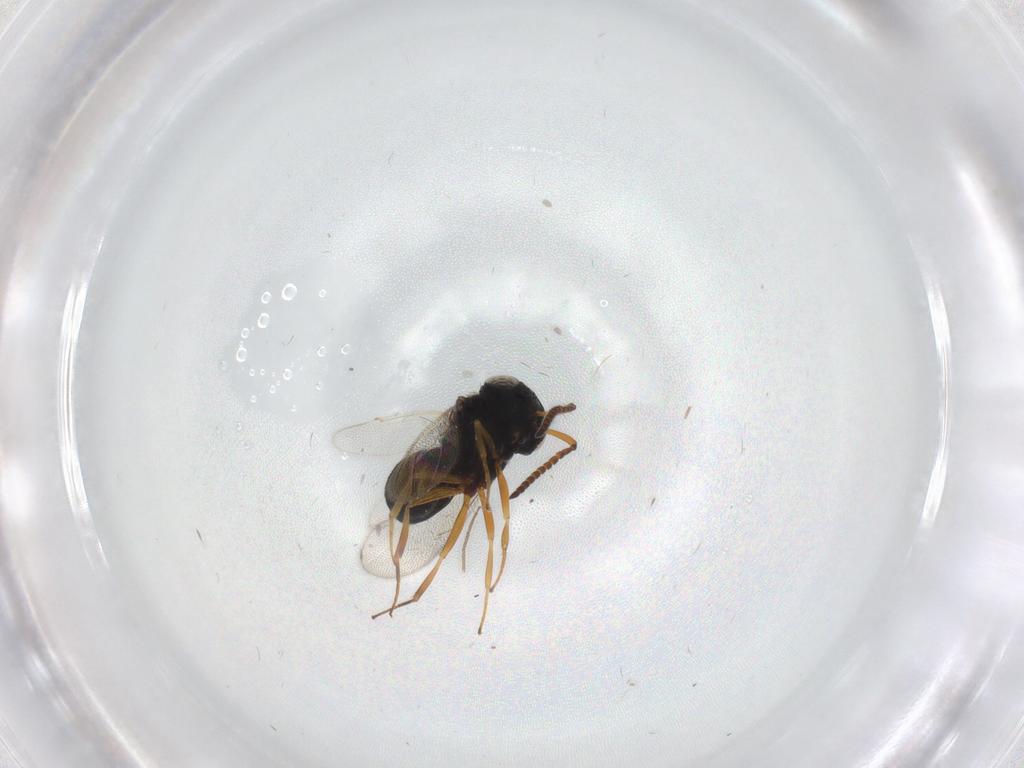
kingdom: Animalia
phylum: Arthropoda
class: Insecta
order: Hymenoptera
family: Scelionidae
